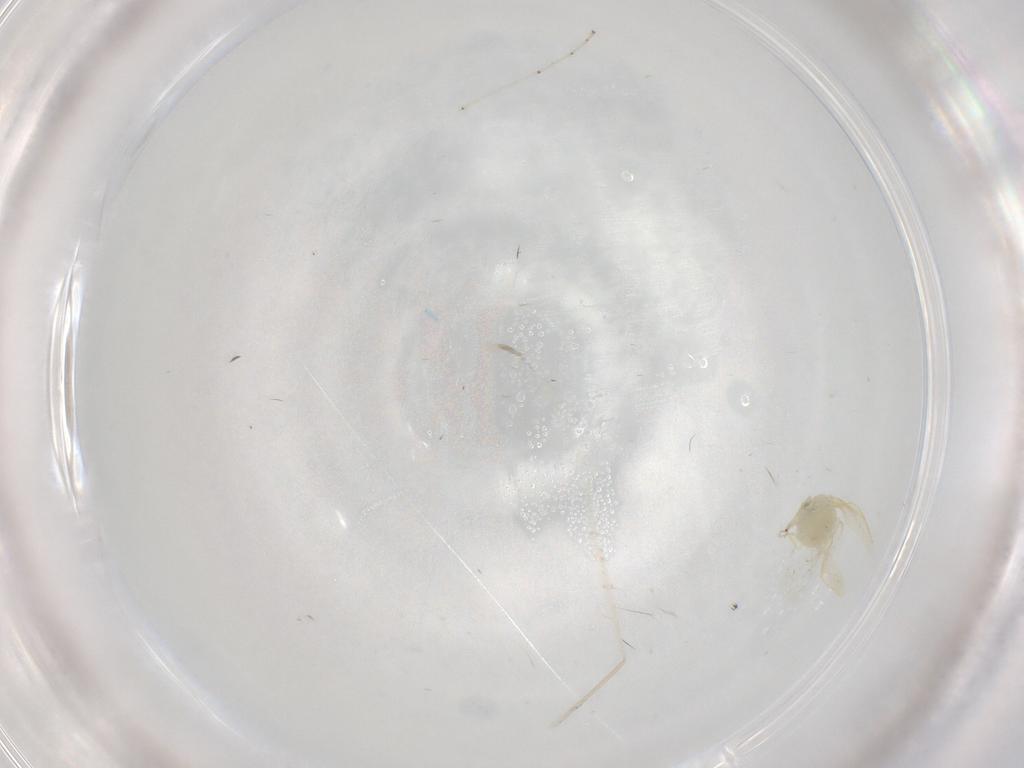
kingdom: Animalia
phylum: Arthropoda
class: Insecta
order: Diptera
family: Cecidomyiidae
